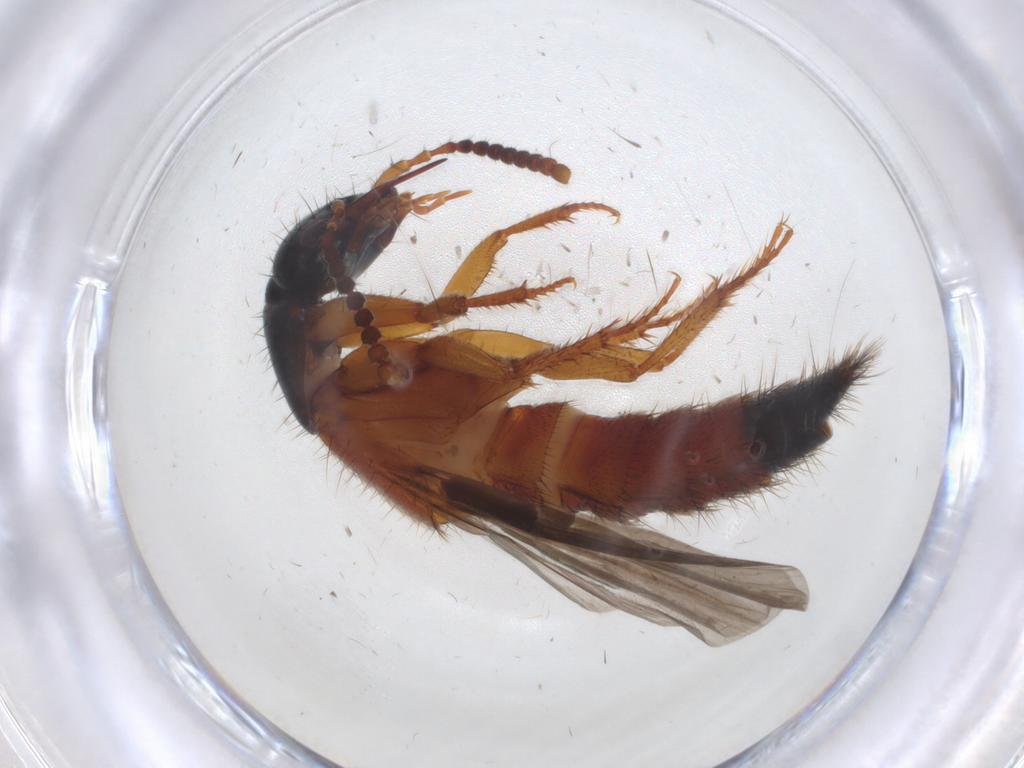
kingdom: Animalia
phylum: Arthropoda
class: Insecta
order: Coleoptera
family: Staphylinidae
